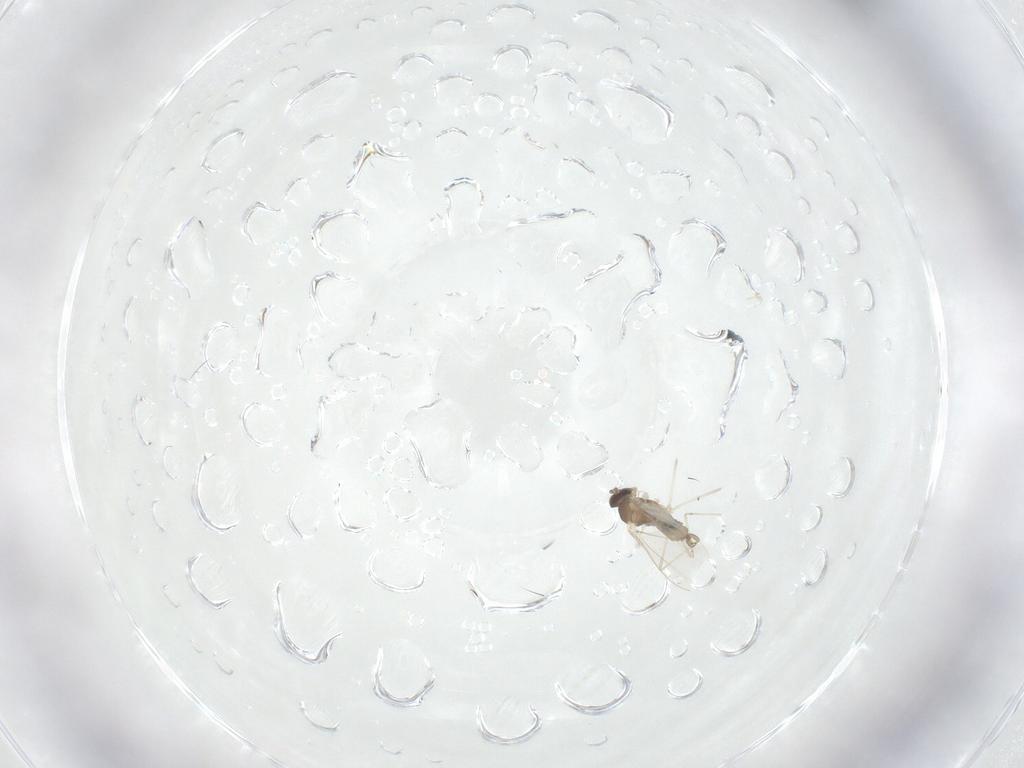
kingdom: Animalia
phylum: Arthropoda
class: Insecta
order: Diptera
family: Cecidomyiidae
